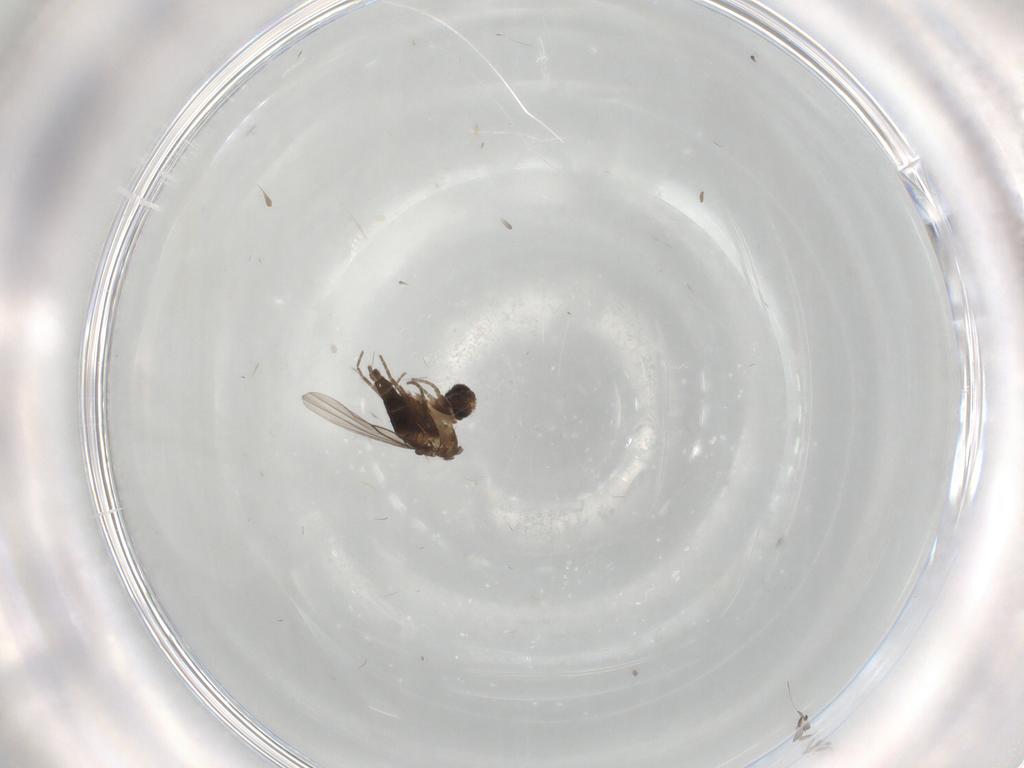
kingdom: Animalia
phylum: Arthropoda
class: Insecta
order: Diptera
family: Phoridae
